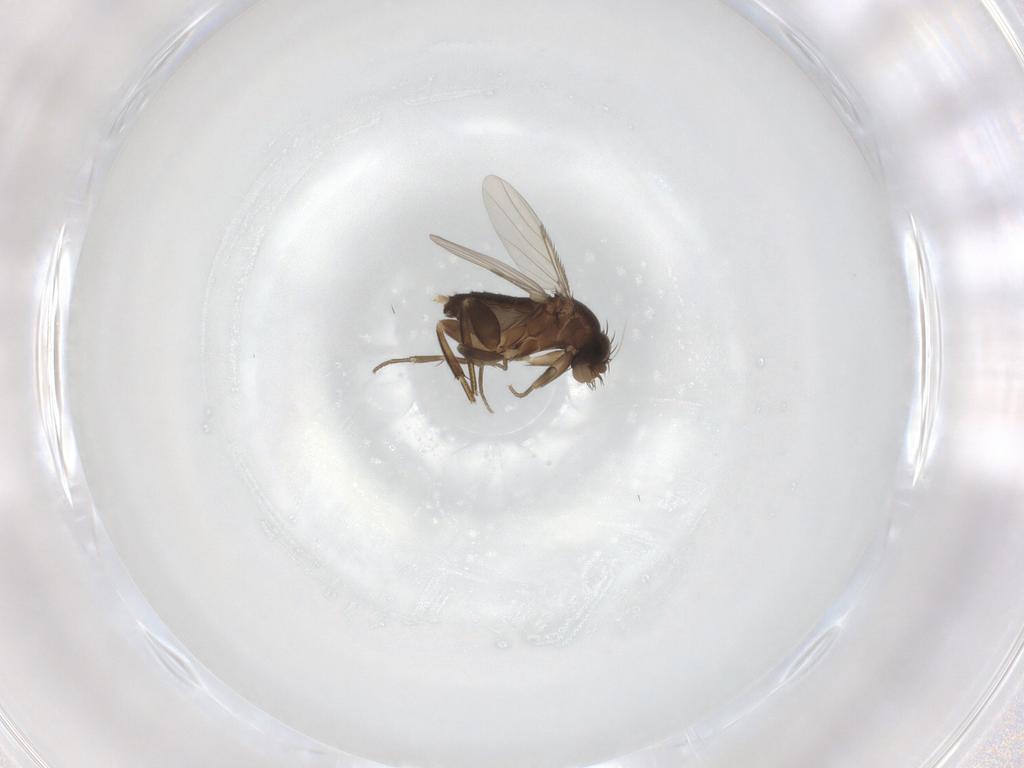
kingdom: Animalia
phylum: Arthropoda
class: Insecta
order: Diptera
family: Phoridae
